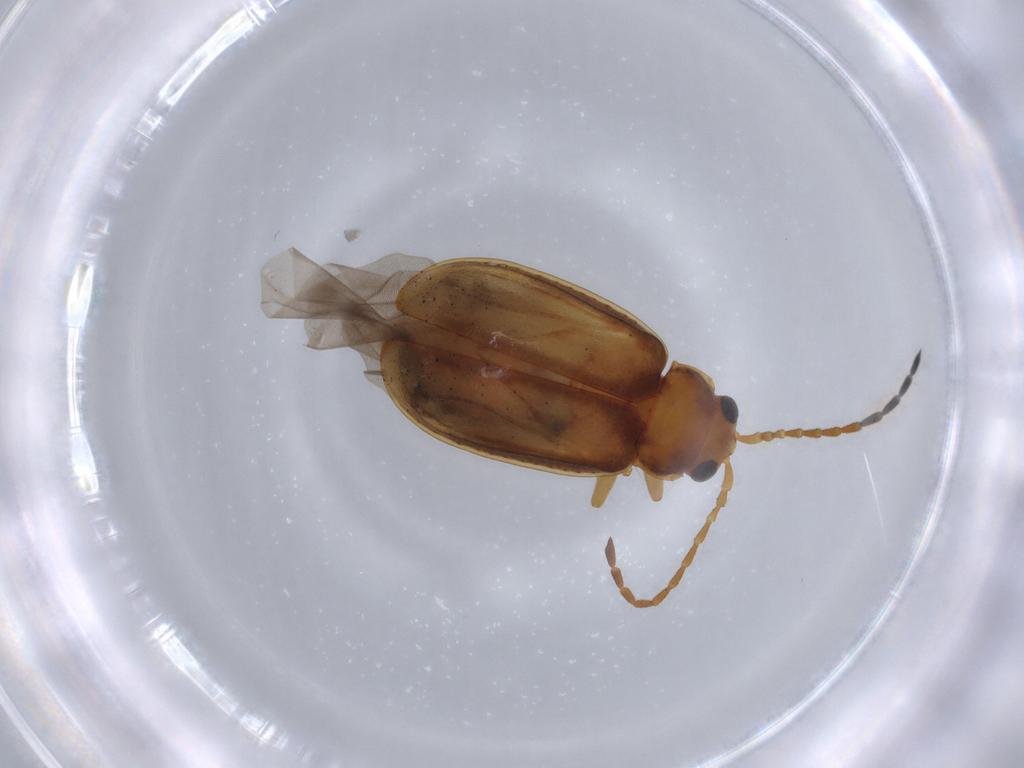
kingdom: Animalia
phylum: Arthropoda
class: Insecta
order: Coleoptera
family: Chrysomelidae
